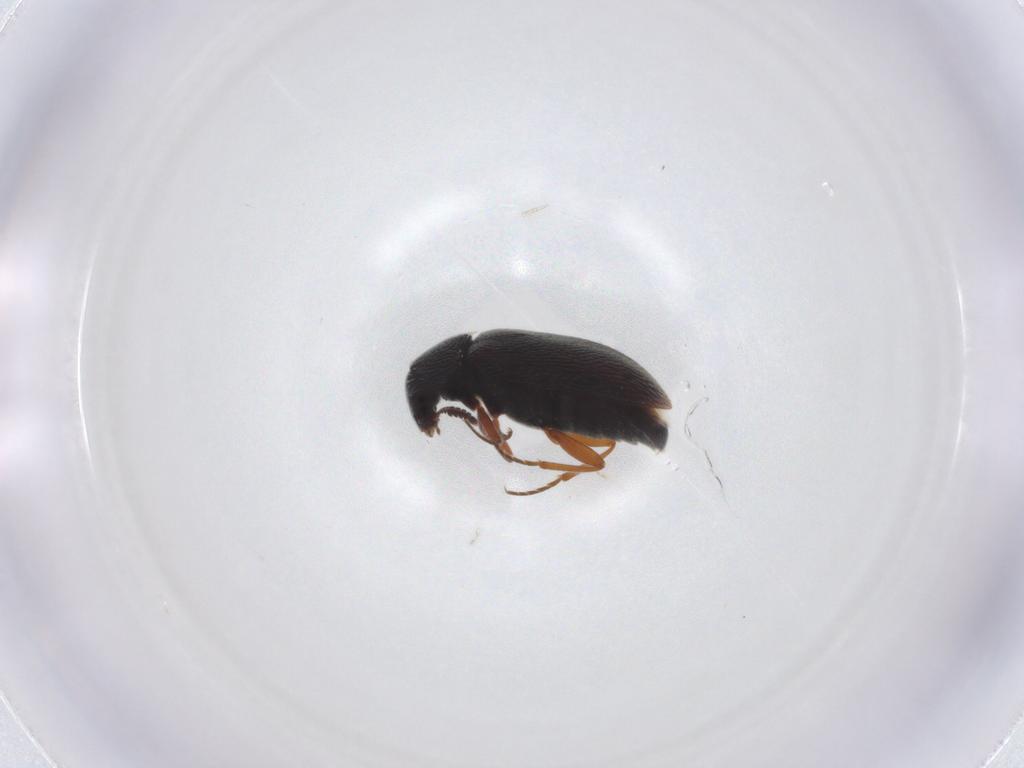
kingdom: Animalia
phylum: Arthropoda
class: Insecta
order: Coleoptera
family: Rhadalidae
